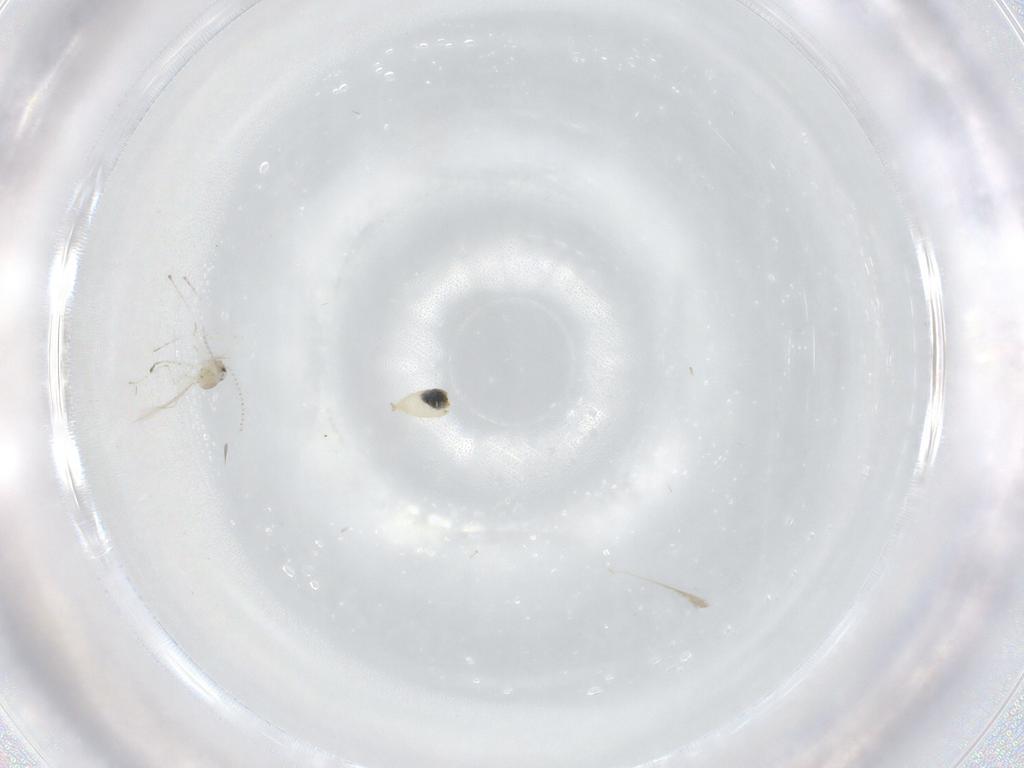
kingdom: Animalia
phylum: Arthropoda
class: Insecta
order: Diptera
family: Cecidomyiidae
